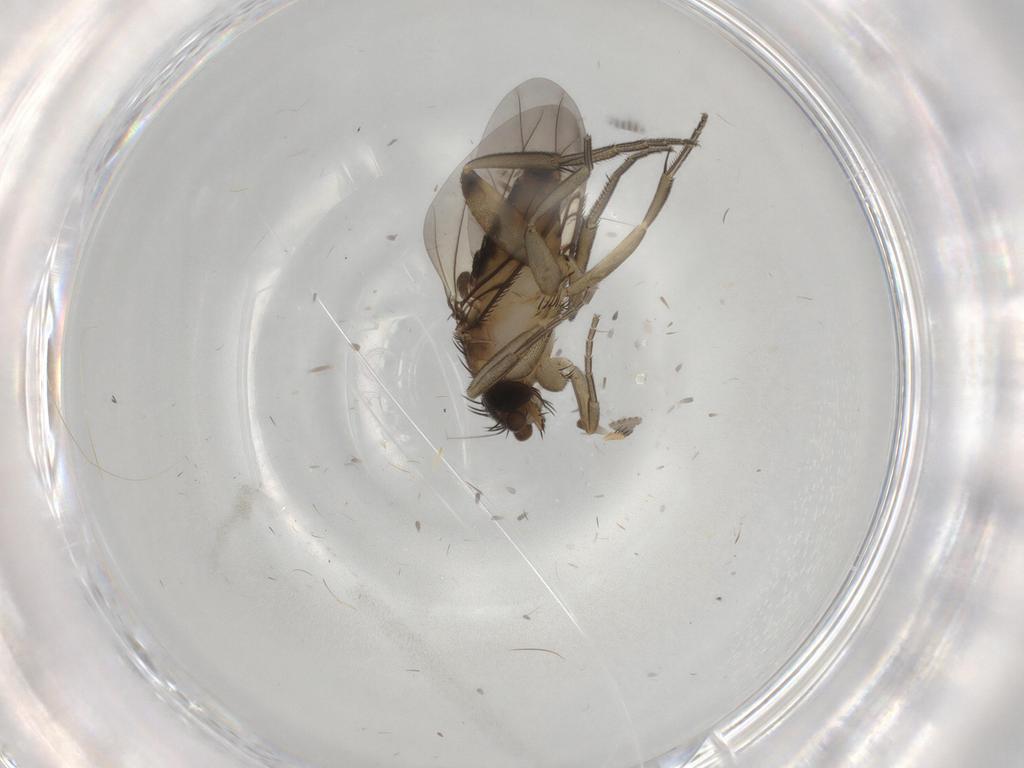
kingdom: Animalia
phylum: Arthropoda
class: Insecta
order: Diptera
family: Phoridae
